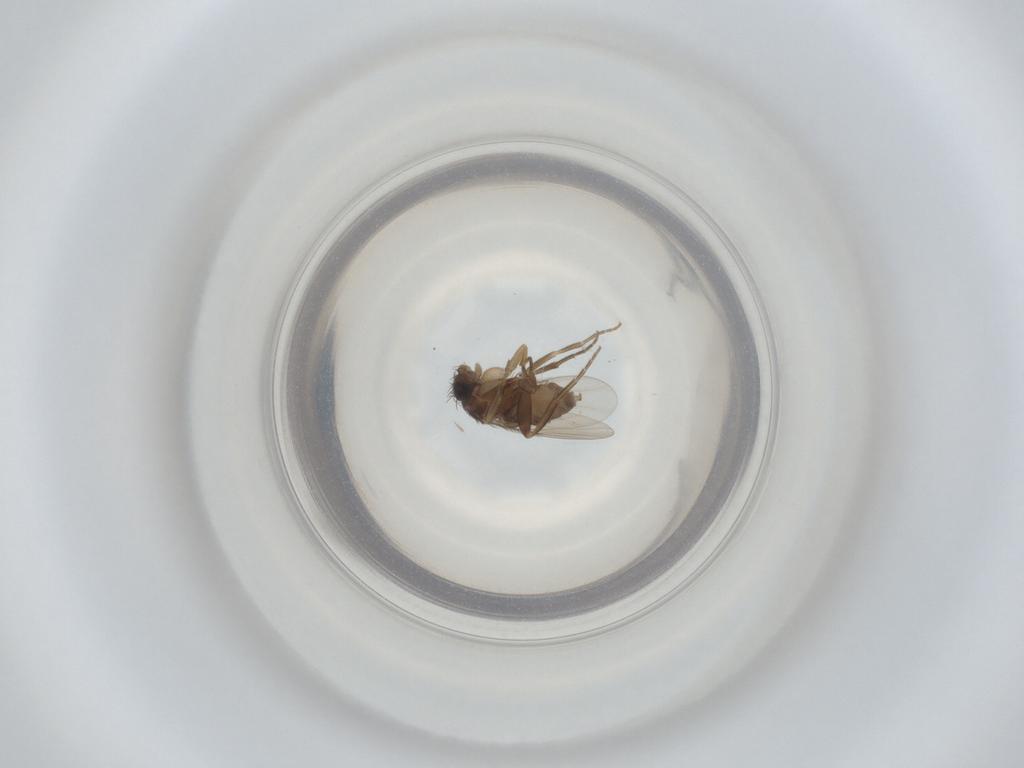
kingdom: Animalia
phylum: Arthropoda
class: Insecta
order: Diptera
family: Phoridae
